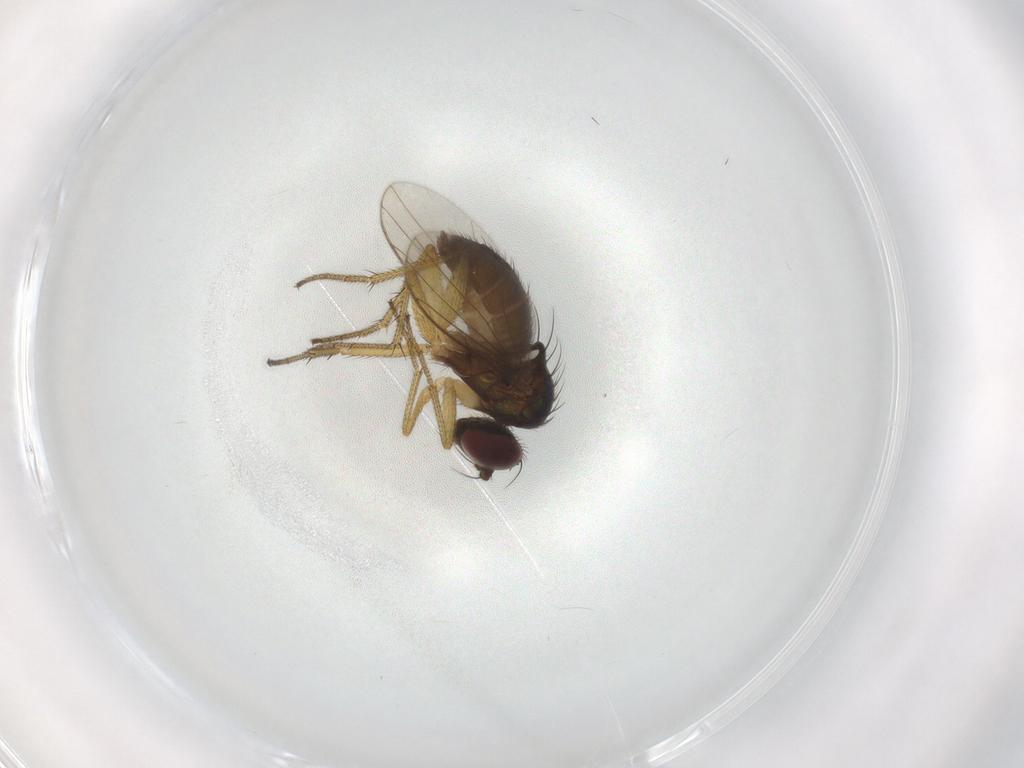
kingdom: Animalia
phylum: Arthropoda
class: Insecta
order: Diptera
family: Dolichopodidae
